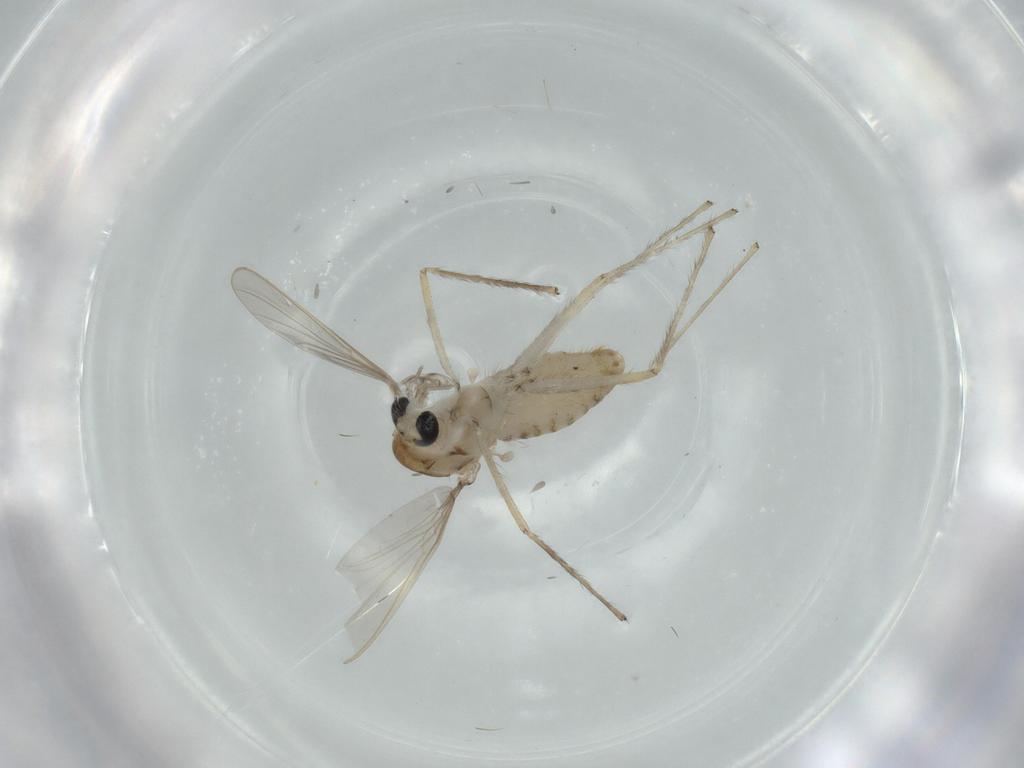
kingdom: Animalia
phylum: Arthropoda
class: Insecta
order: Diptera
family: Chironomidae
